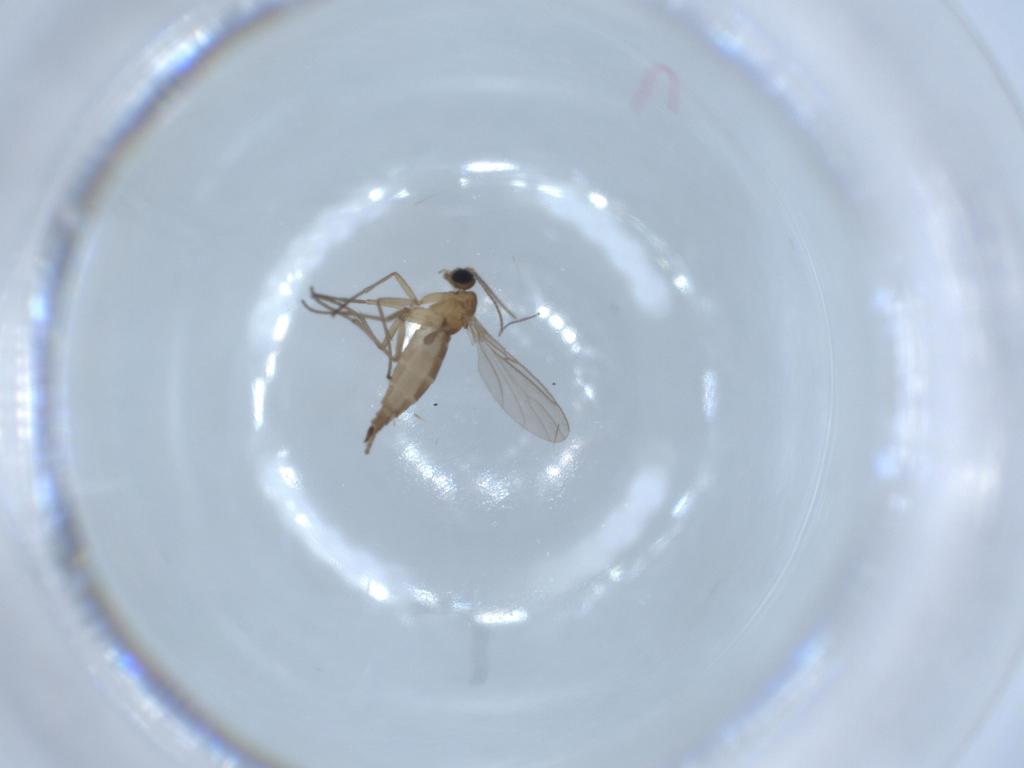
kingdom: Animalia
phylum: Arthropoda
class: Insecta
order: Diptera
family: Sciaridae
